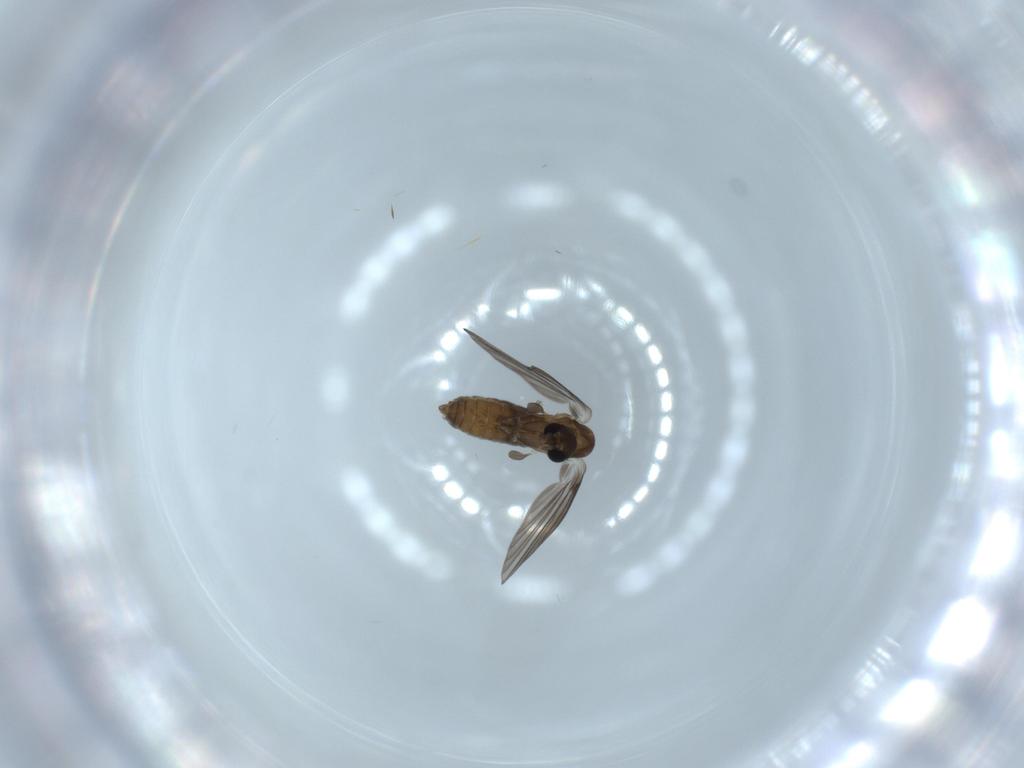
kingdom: Animalia
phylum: Arthropoda
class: Insecta
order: Diptera
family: Psychodidae
